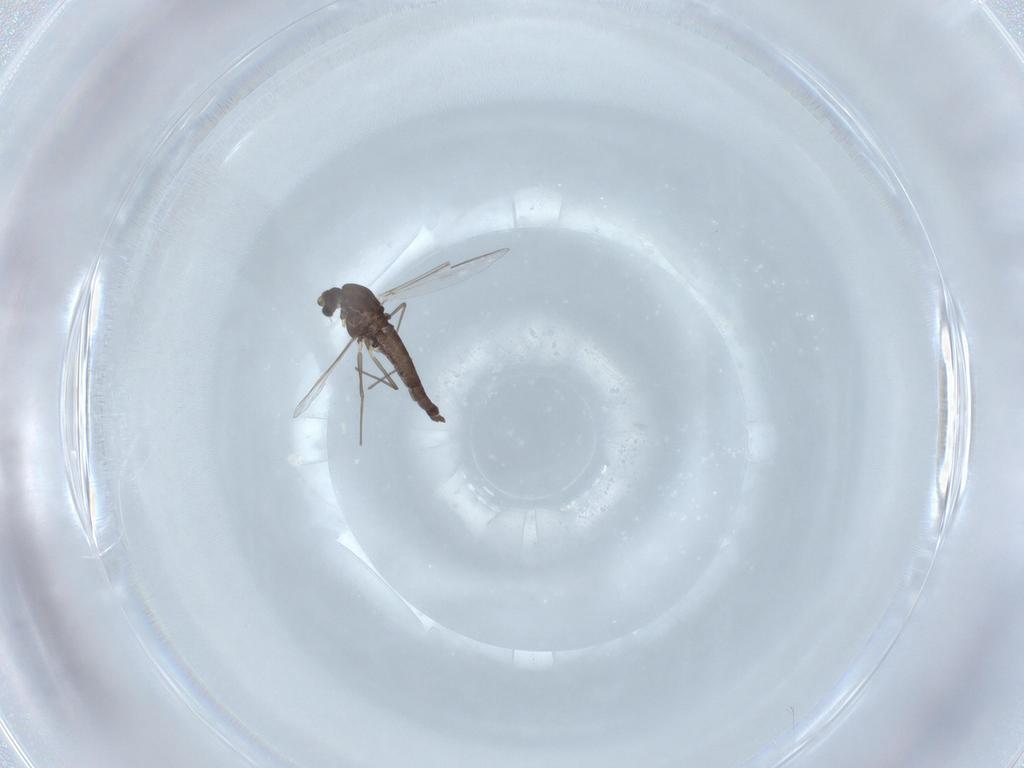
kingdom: Animalia
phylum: Arthropoda
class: Insecta
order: Diptera
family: Chironomidae
